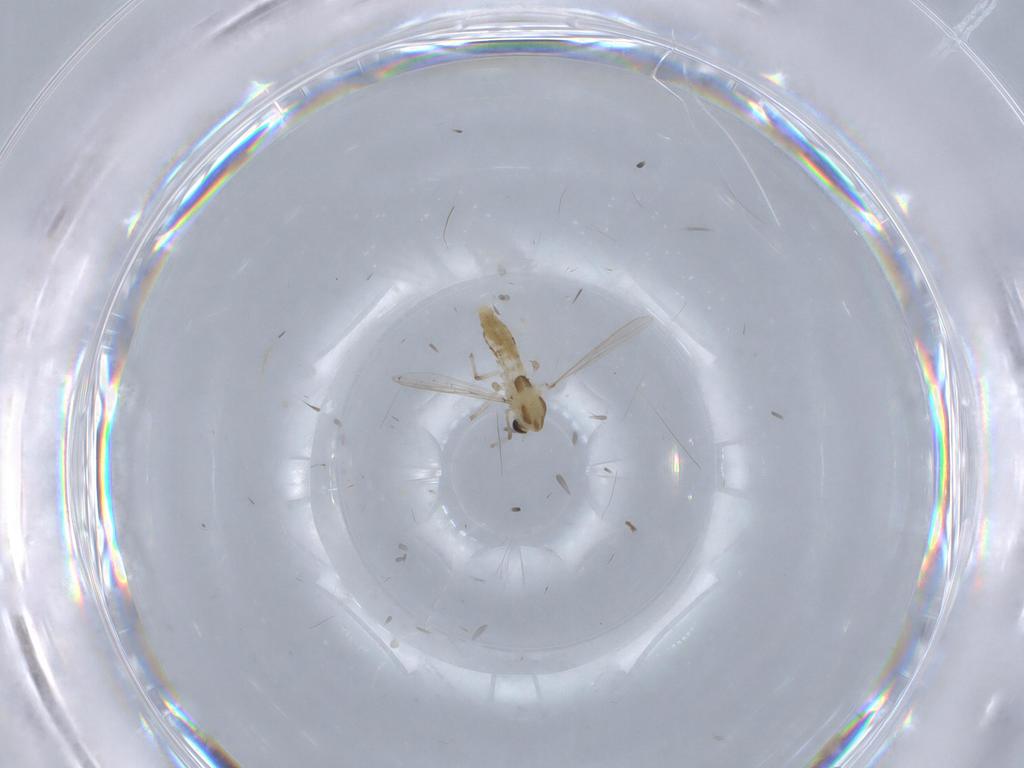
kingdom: Animalia
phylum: Arthropoda
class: Insecta
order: Diptera
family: Chironomidae
